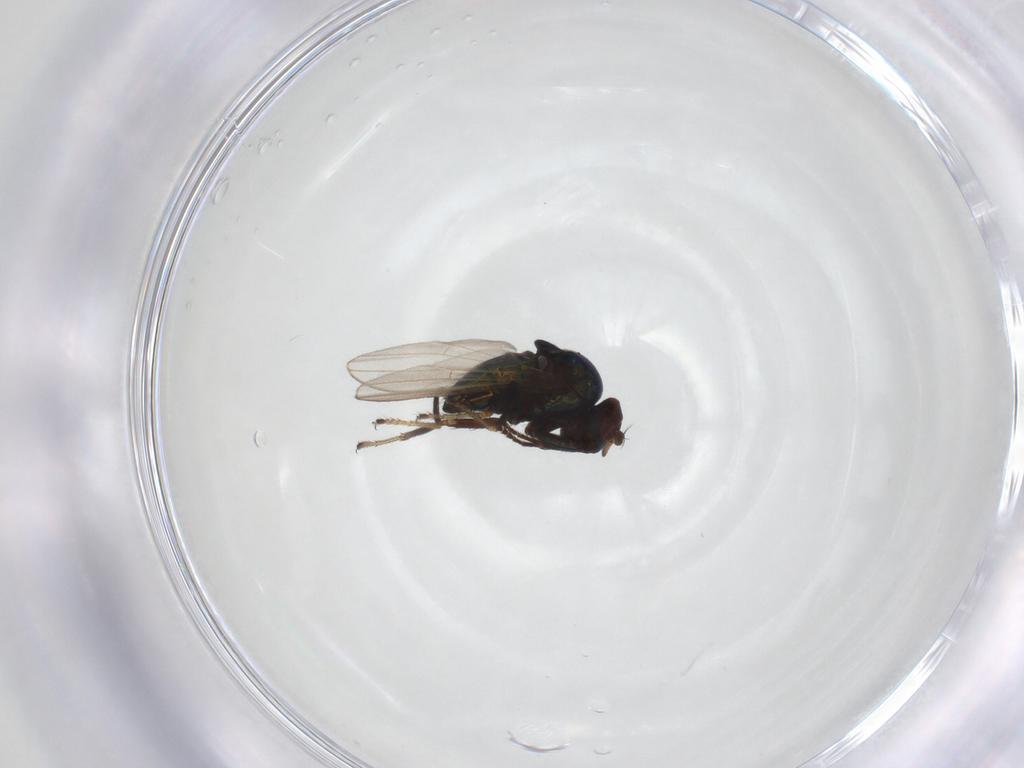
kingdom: Animalia
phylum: Arthropoda
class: Insecta
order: Diptera
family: Ephydridae
